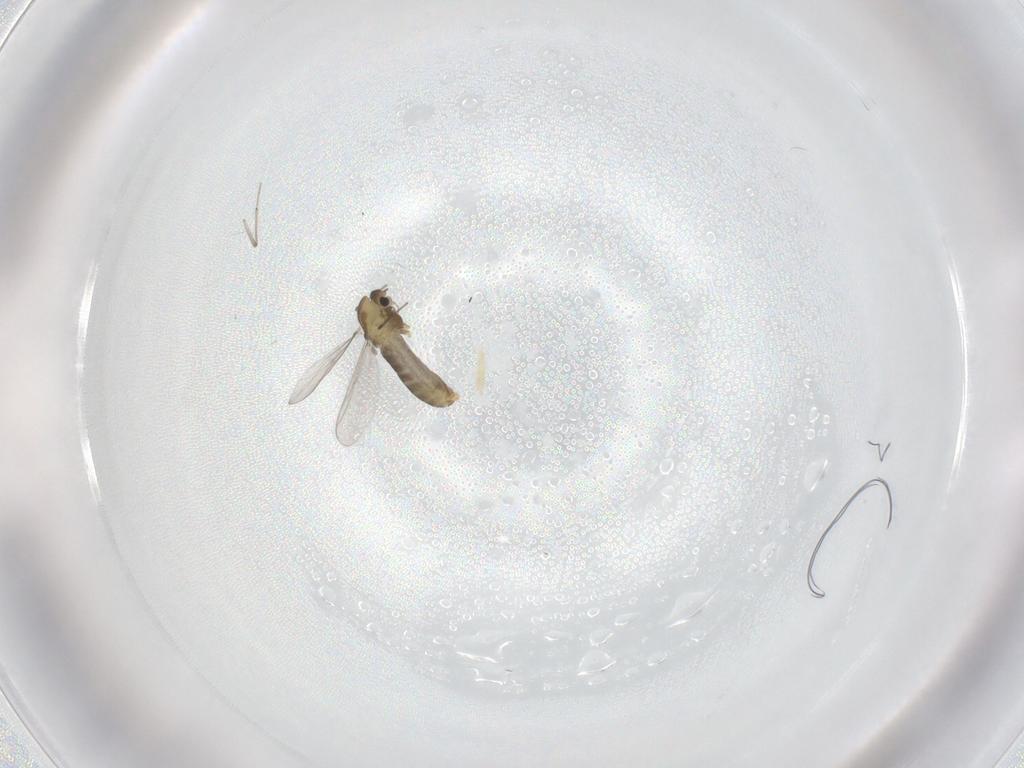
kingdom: Animalia
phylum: Arthropoda
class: Insecta
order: Diptera
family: Chironomidae
